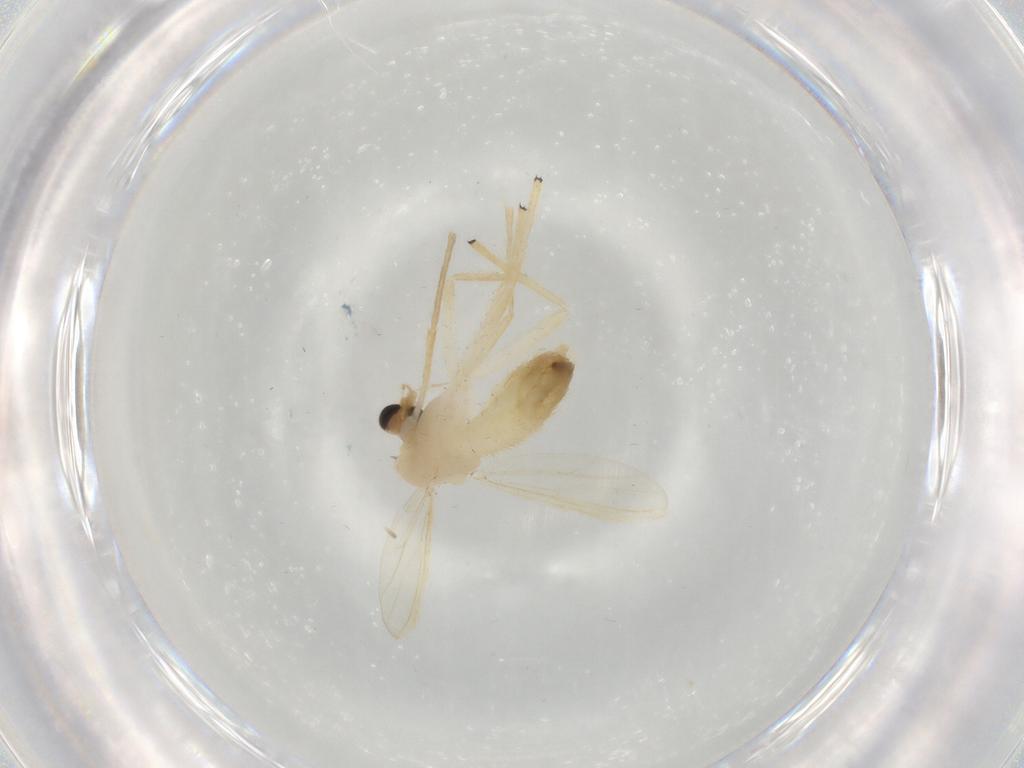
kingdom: Animalia
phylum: Arthropoda
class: Insecta
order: Diptera
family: Chironomidae
